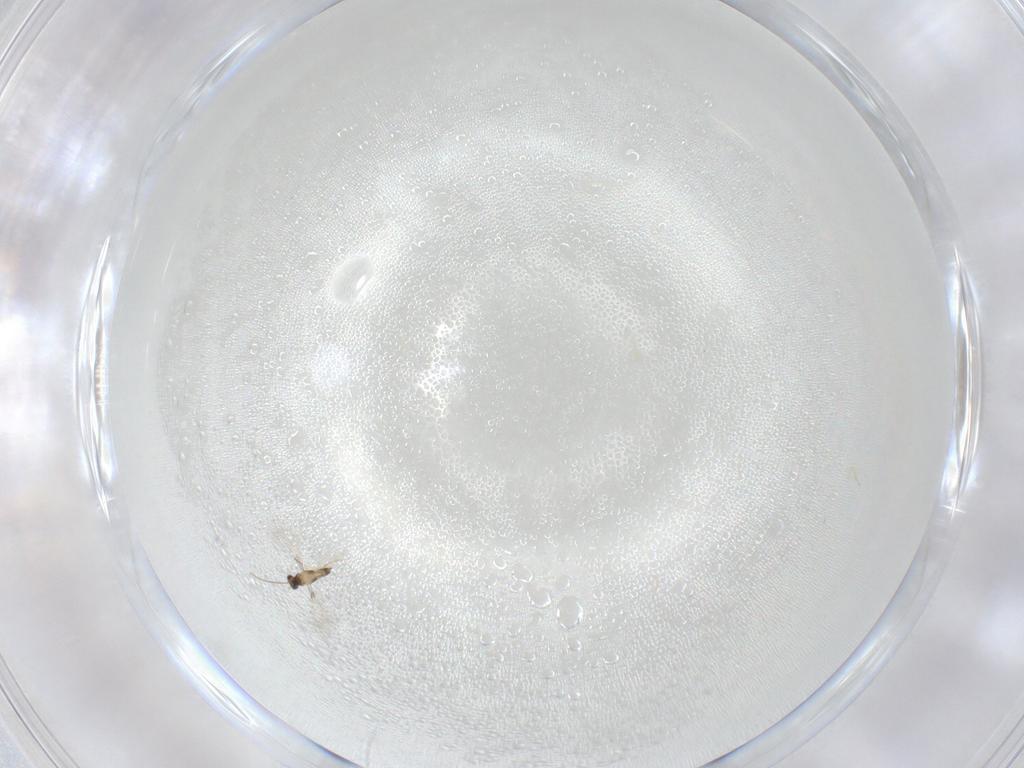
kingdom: Animalia
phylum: Arthropoda
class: Insecta
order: Hymenoptera
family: Mymaridae
